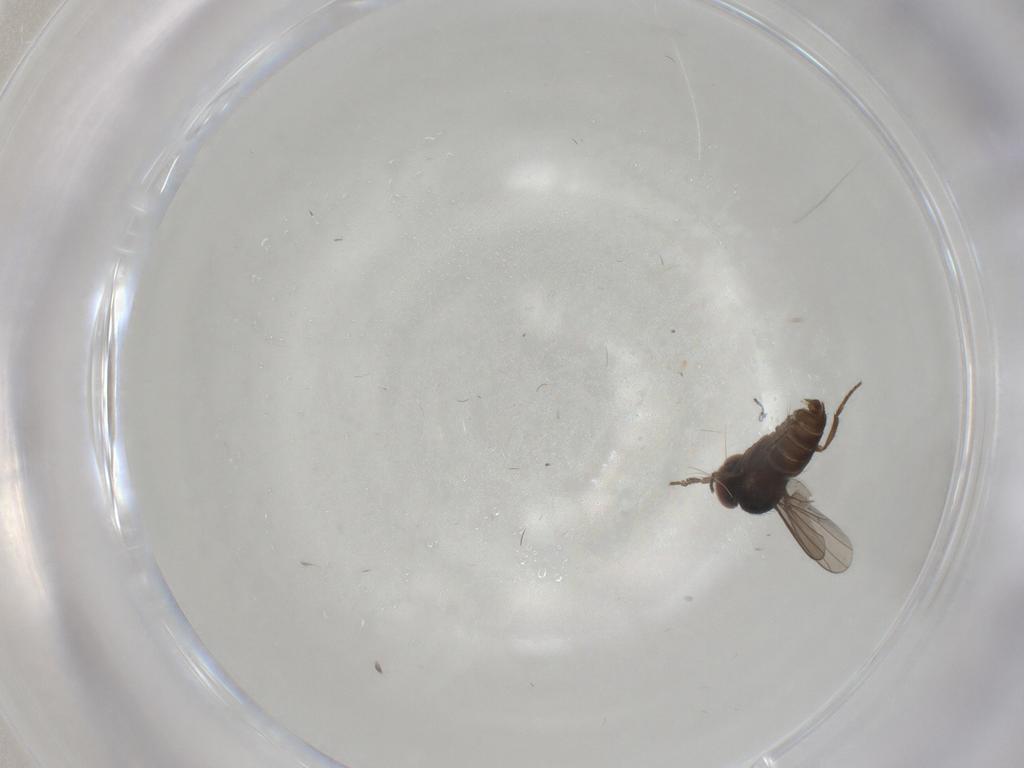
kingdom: Animalia
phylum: Arthropoda
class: Insecta
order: Diptera
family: Dolichopodidae
